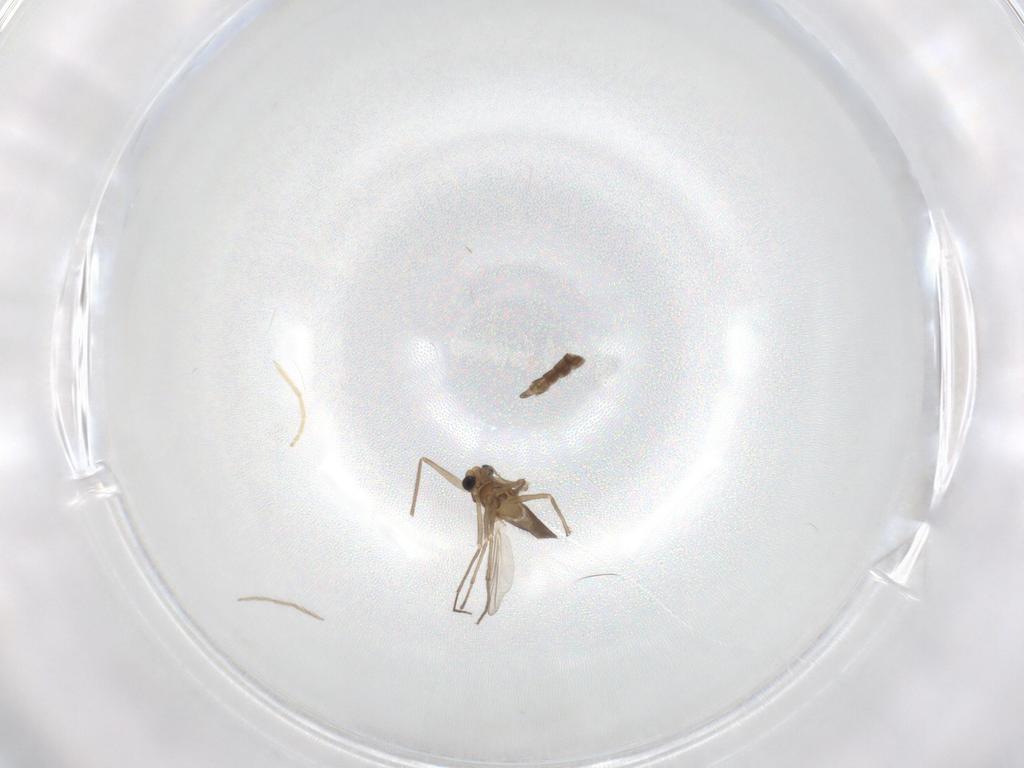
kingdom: Animalia
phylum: Arthropoda
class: Insecta
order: Diptera
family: Chironomidae
